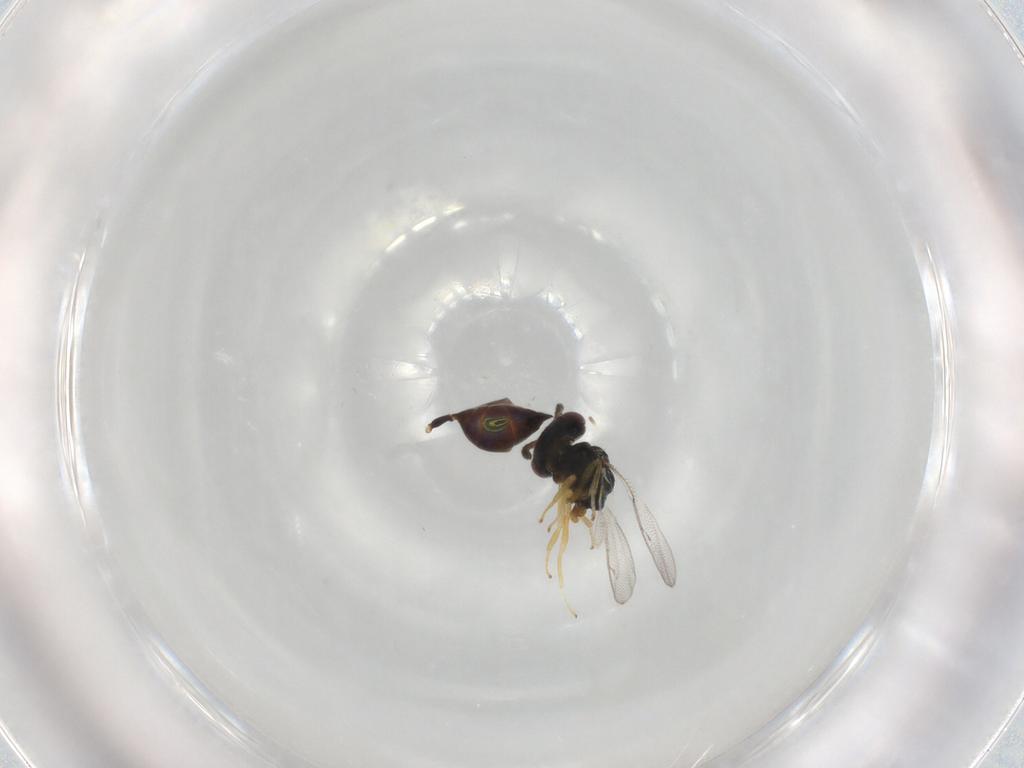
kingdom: Animalia
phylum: Arthropoda
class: Insecta
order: Hymenoptera
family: Pteromalidae
